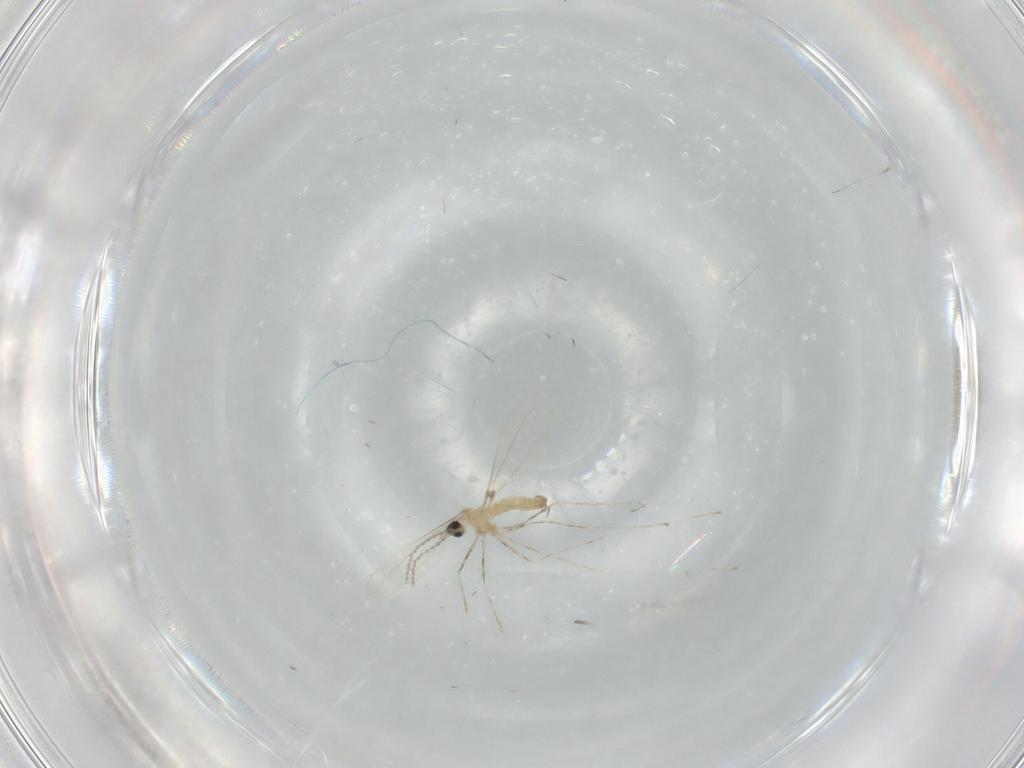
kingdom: Animalia
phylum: Arthropoda
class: Insecta
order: Diptera
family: Cecidomyiidae
